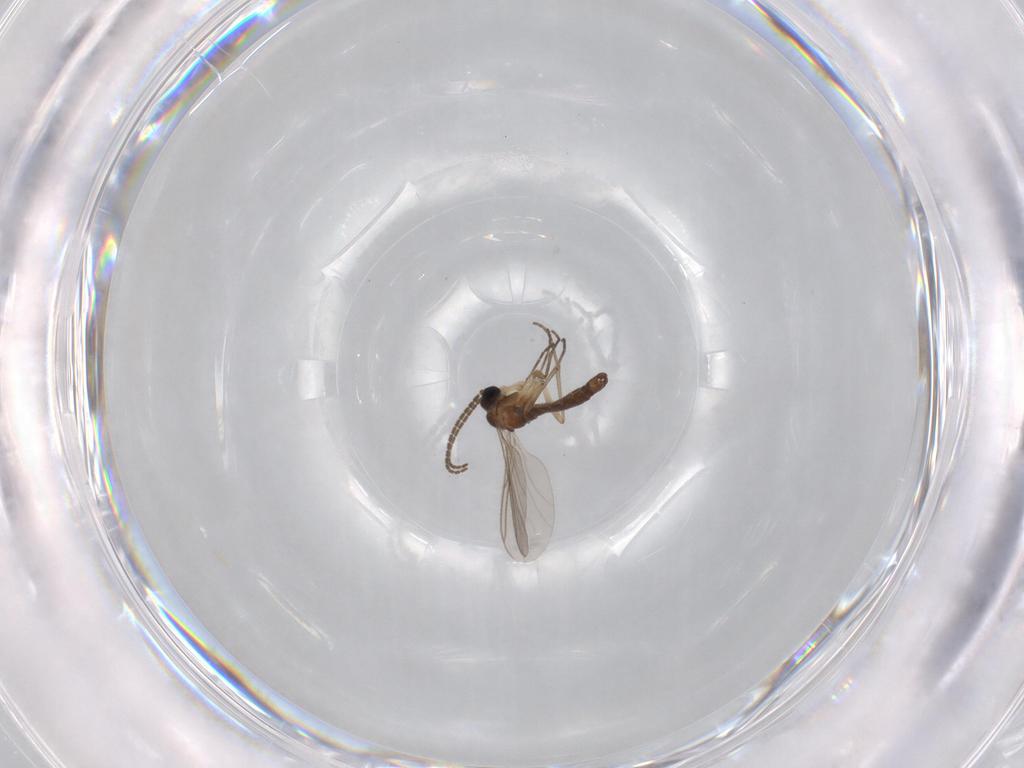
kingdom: Animalia
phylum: Arthropoda
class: Insecta
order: Diptera
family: Sciaridae
